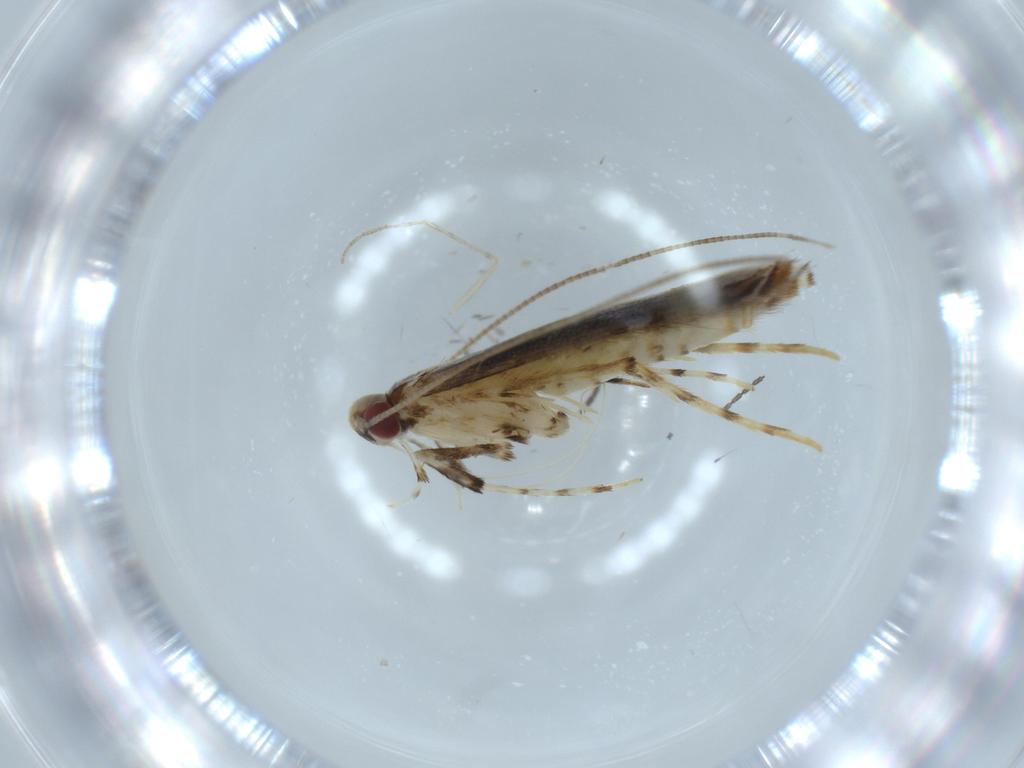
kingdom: Animalia
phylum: Arthropoda
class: Insecta
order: Lepidoptera
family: Gracillariidae
